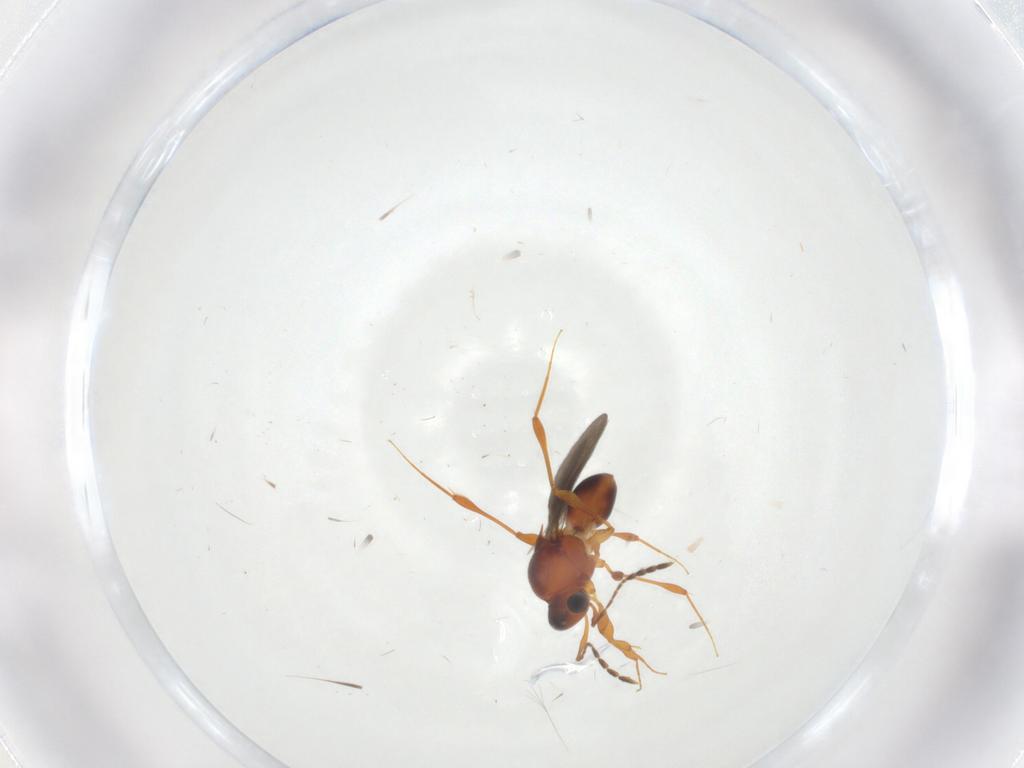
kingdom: Animalia
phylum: Arthropoda
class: Insecta
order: Hymenoptera
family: Platygastridae
